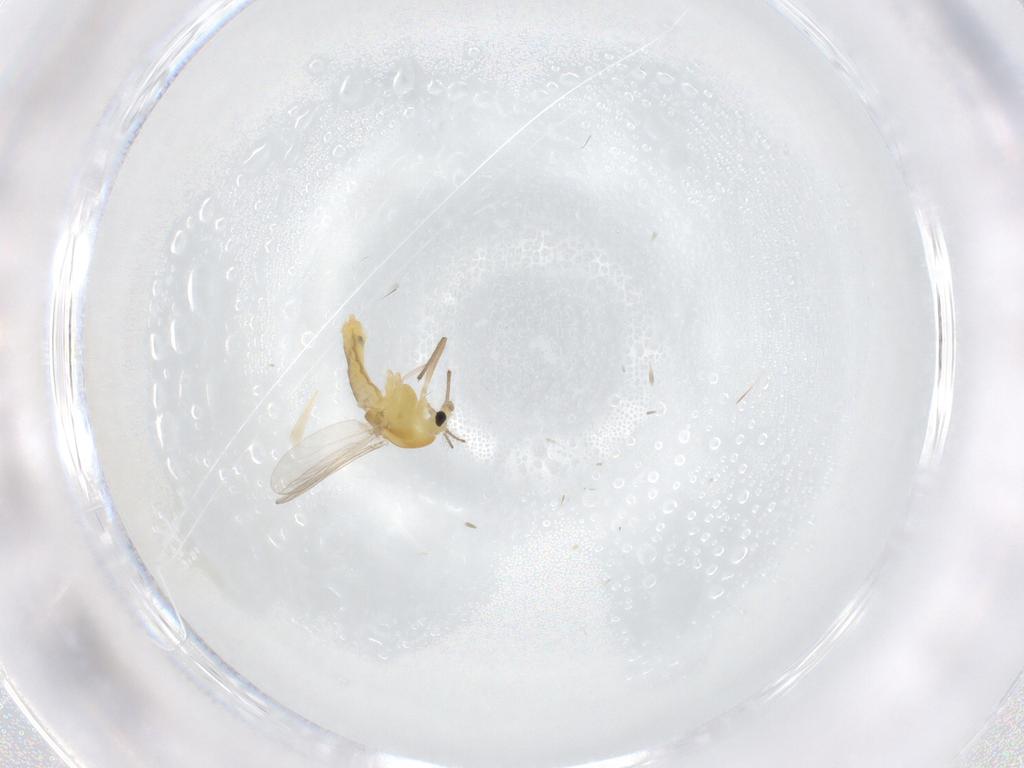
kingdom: Animalia
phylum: Arthropoda
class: Insecta
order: Diptera
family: Chironomidae
